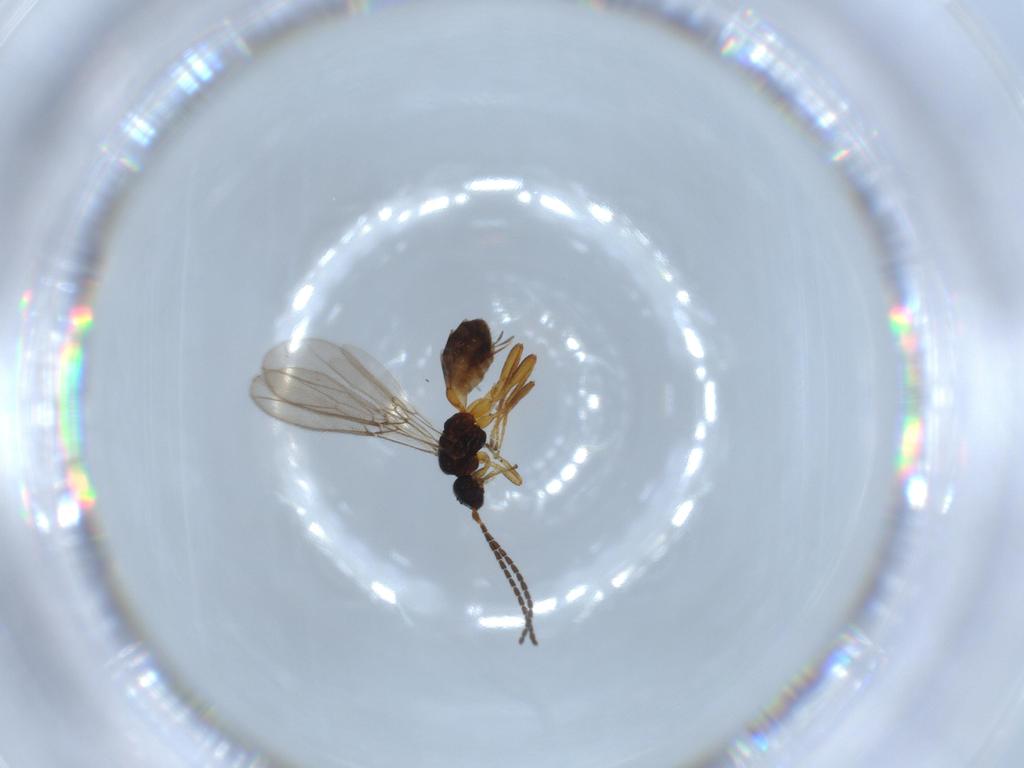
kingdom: Animalia
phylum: Arthropoda
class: Insecta
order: Hymenoptera
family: Braconidae
